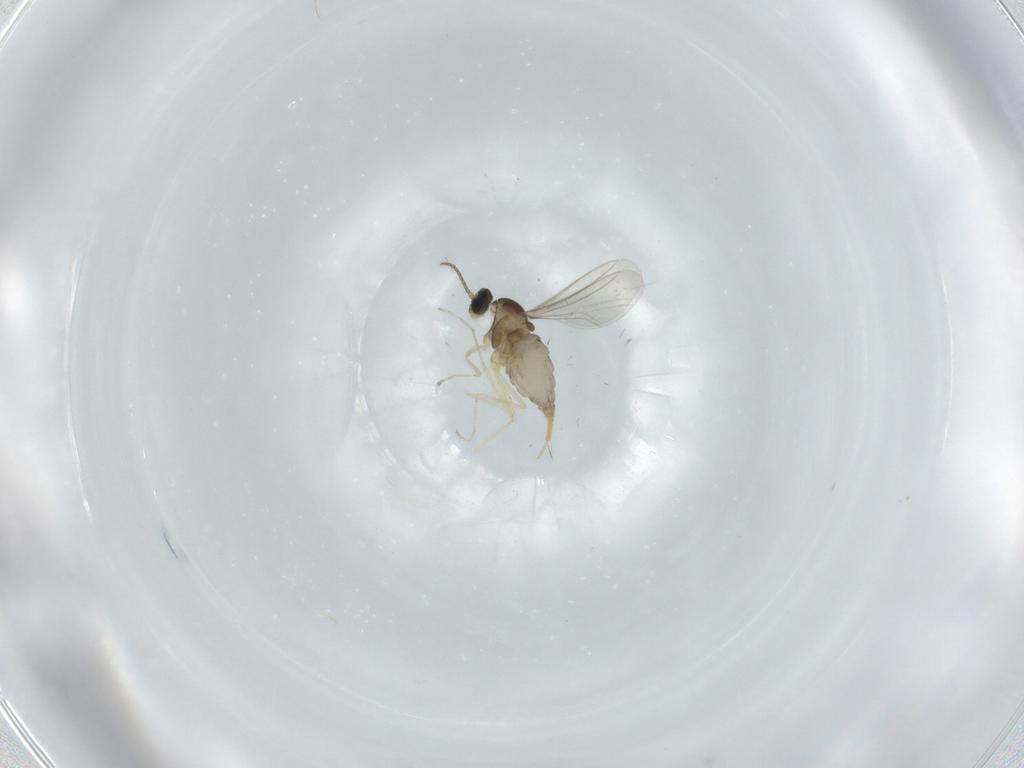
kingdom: Animalia
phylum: Arthropoda
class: Insecta
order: Diptera
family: Cecidomyiidae
